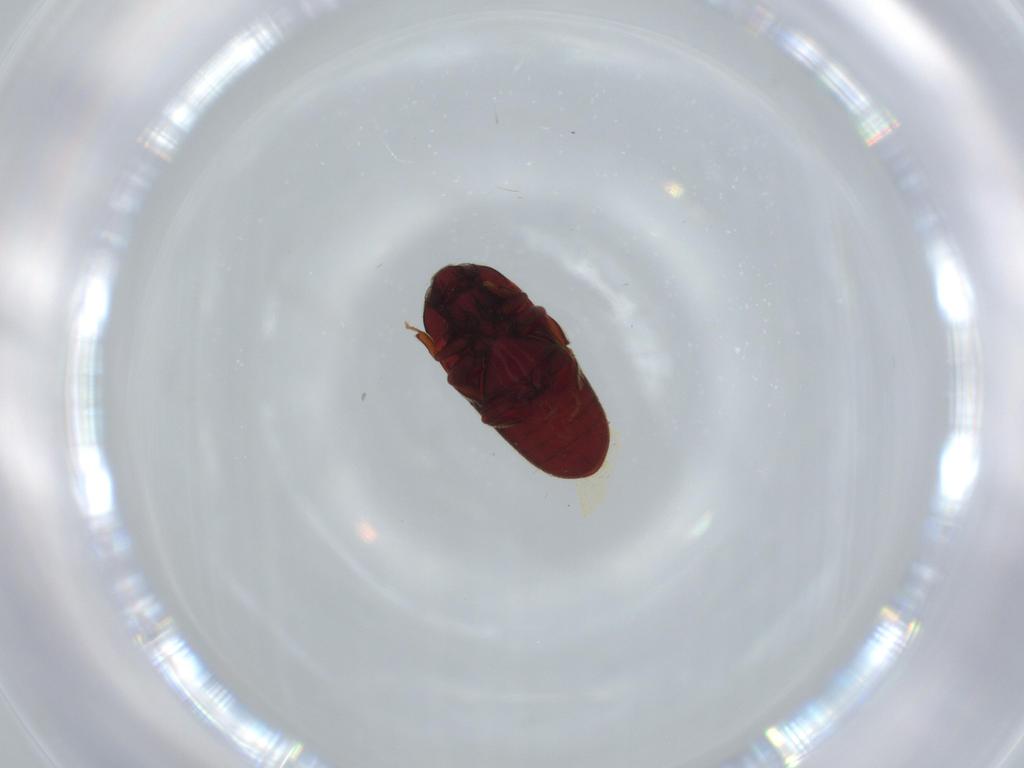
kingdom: Animalia
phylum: Arthropoda
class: Insecta
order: Coleoptera
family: Throscidae
